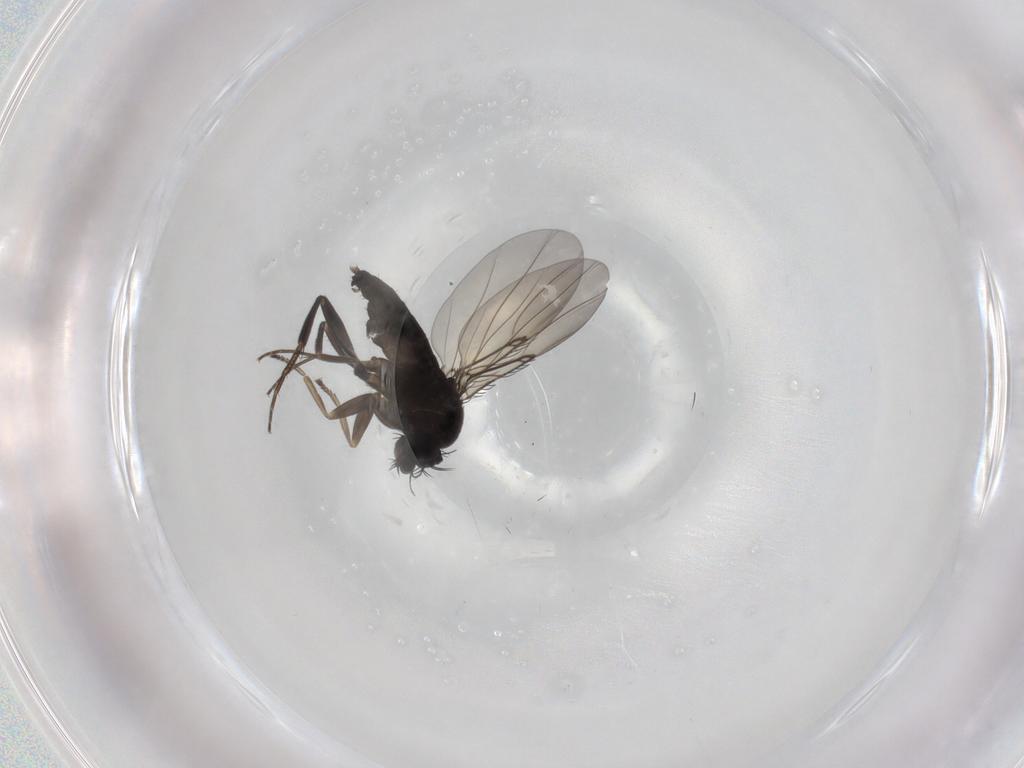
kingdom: Animalia
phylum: Arthropoda
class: Insecta
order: Diptera
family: Phoridae
